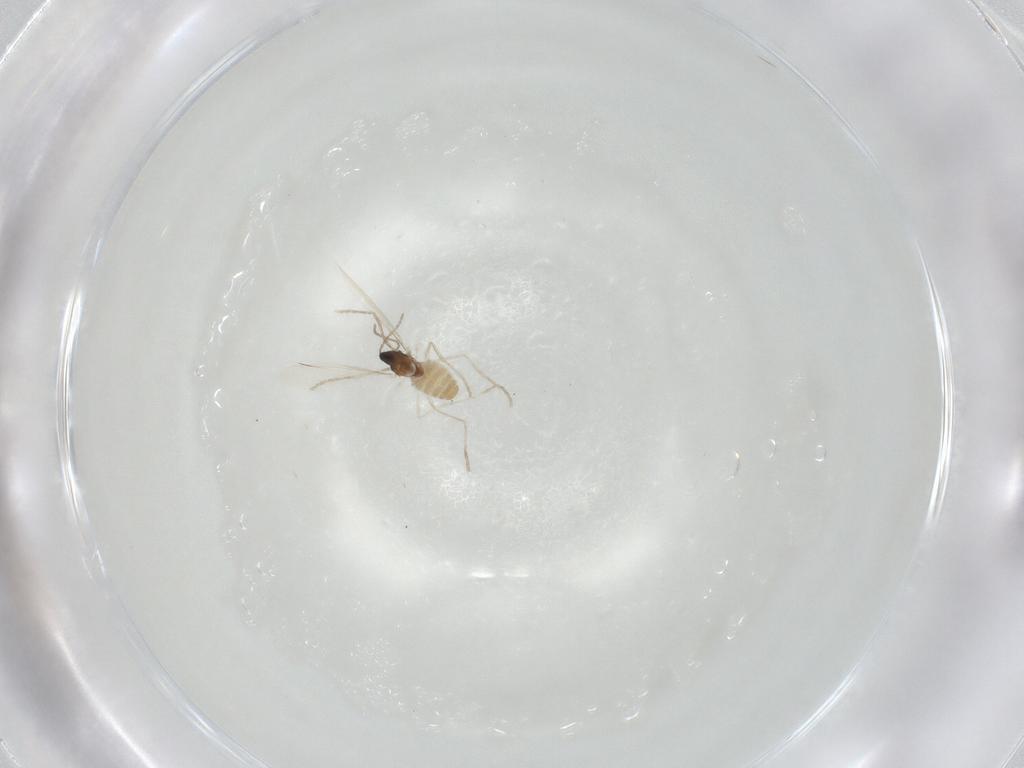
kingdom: Animalia
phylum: Arthropoda
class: Insecta
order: Diptera
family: Cecidomyiidae
